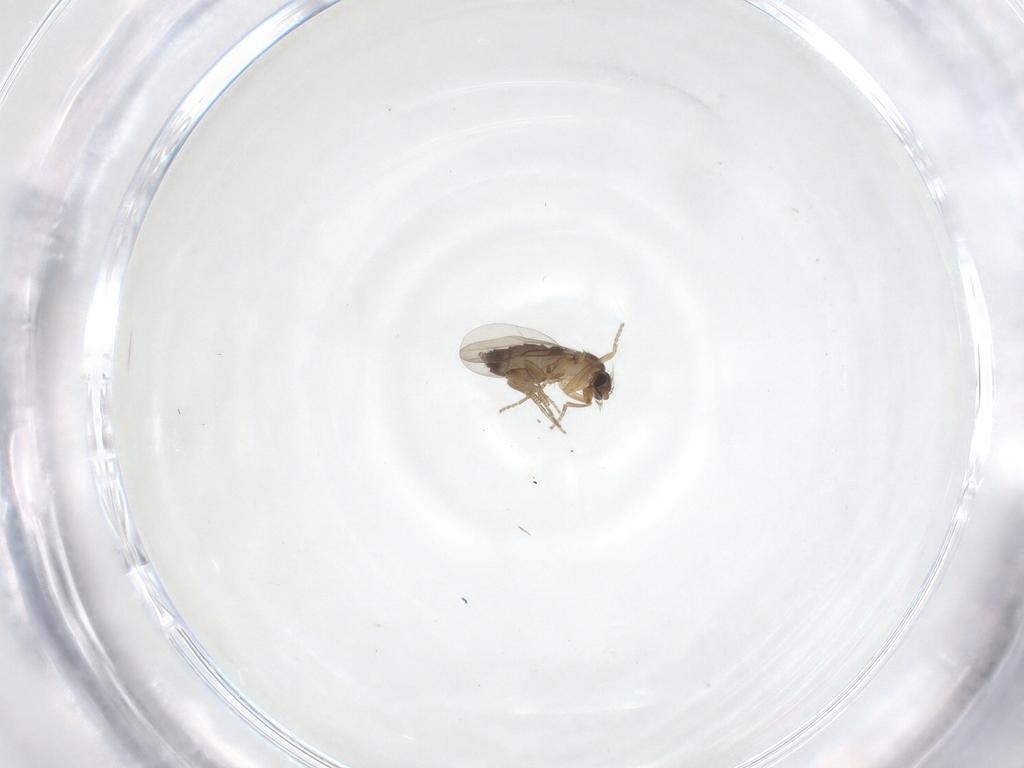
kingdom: Animalia
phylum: Arthropoda
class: Insecta
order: Diptera
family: Phoridae
